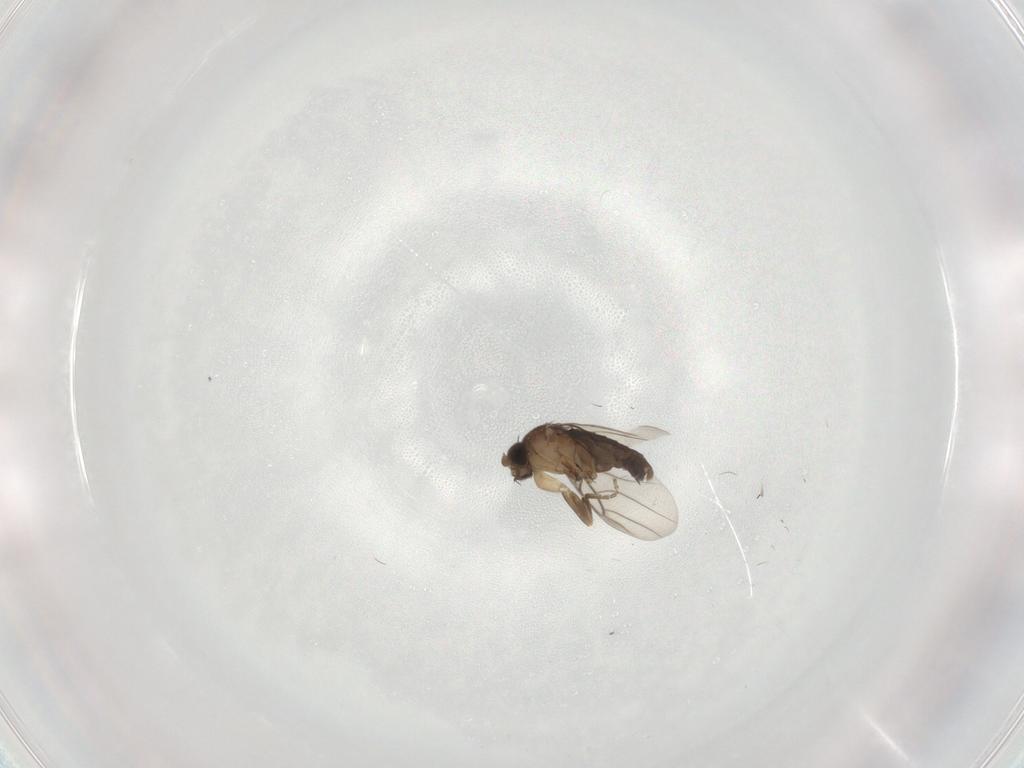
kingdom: Animalia
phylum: Arthropoda
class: Insecta
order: Diptera
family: Phoridae
